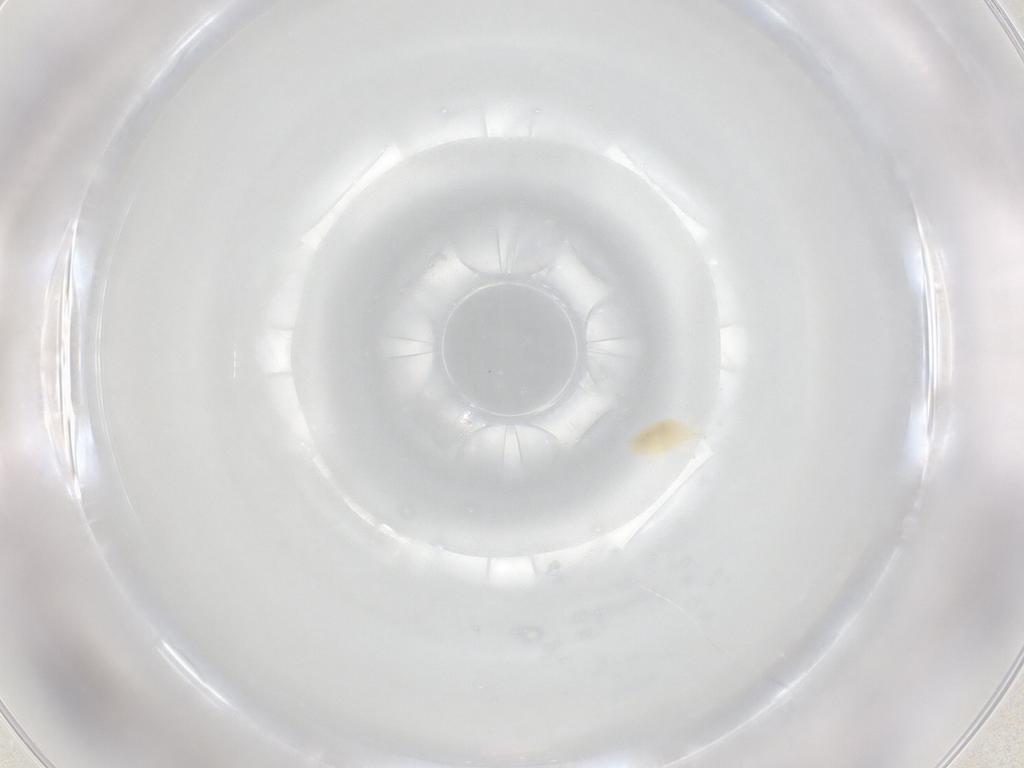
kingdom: Animalia
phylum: Arthropoda
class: Arachnida
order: Trombidiformes
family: Stigmaeidae
